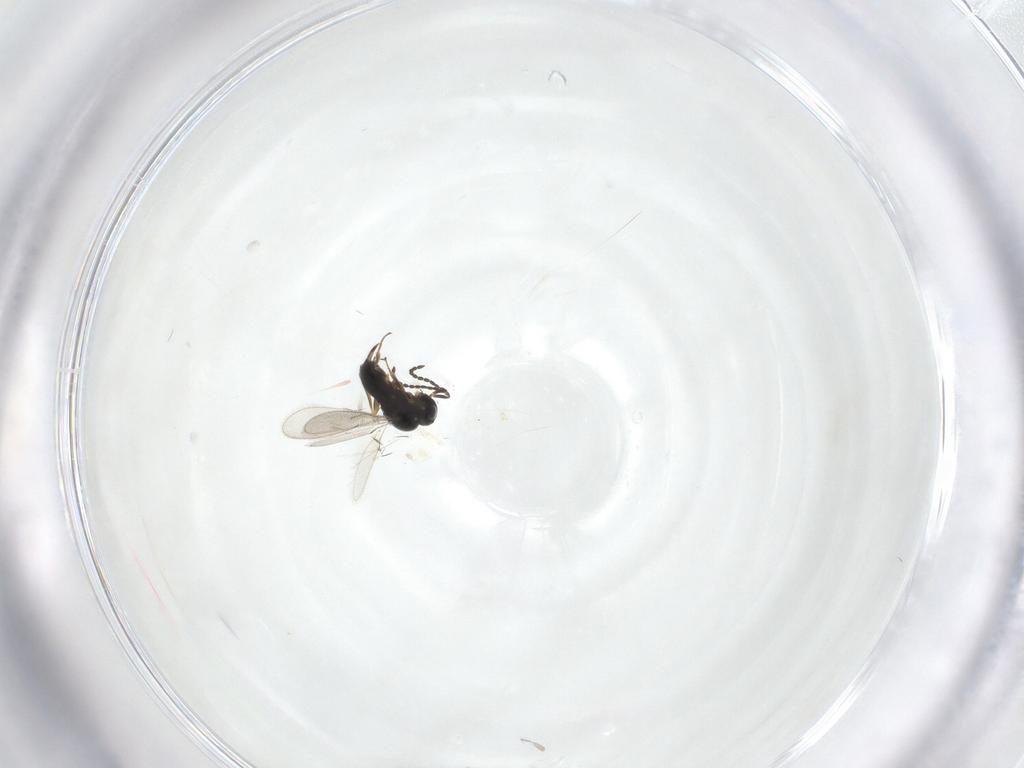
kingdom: Animalia
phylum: Arthropoda
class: Insecta
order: Hymenoptera
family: Scelionidae
